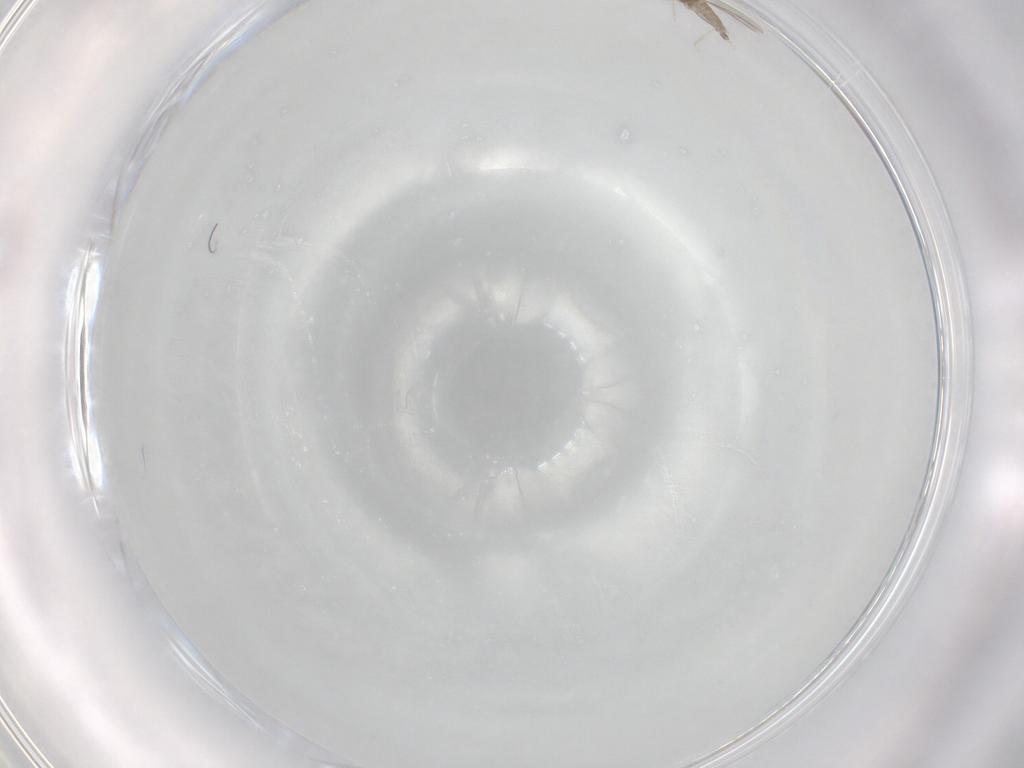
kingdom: Animalia
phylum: Arthropoda
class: Insecta
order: Diptera
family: Cecidomyiidae
